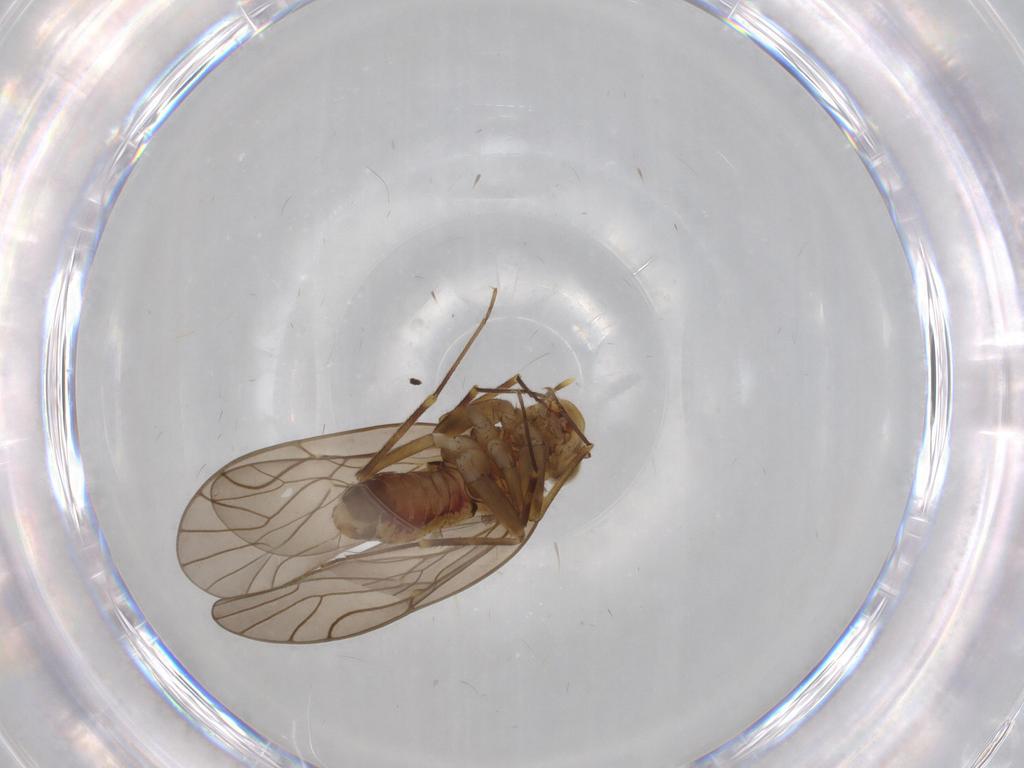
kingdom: Animalia
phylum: Arthropoda
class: Insecta
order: Psocodea
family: Philotarsidae
